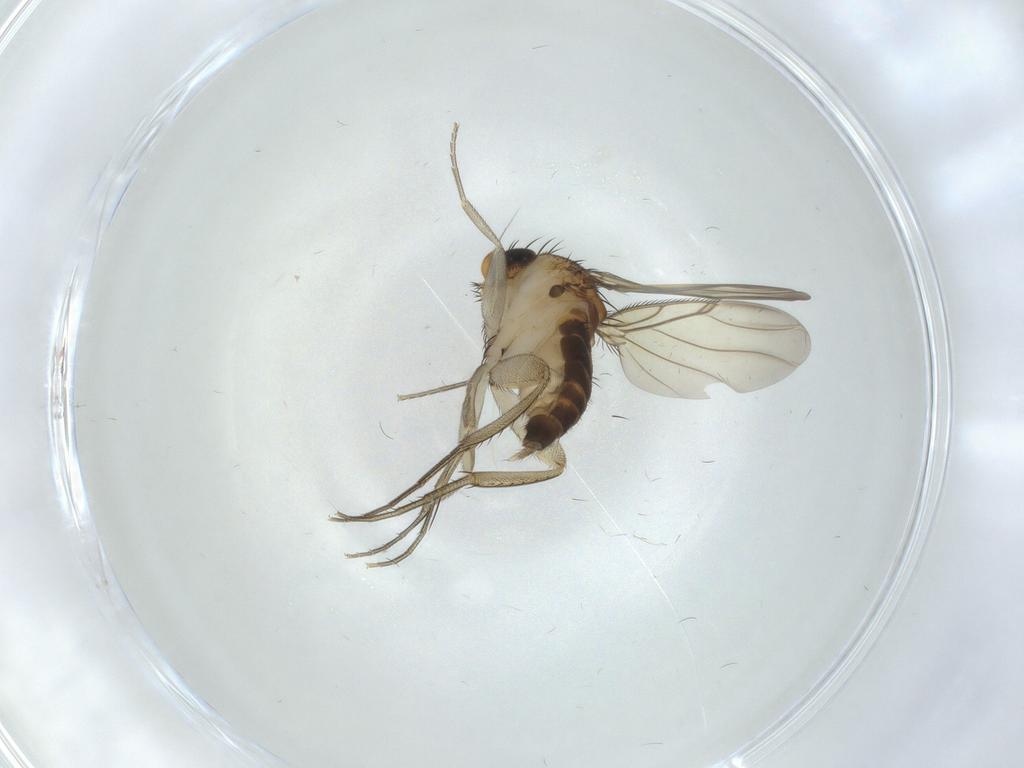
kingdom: Animalia
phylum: Arthropoda
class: Insecta
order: Diptera
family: Phoridae
